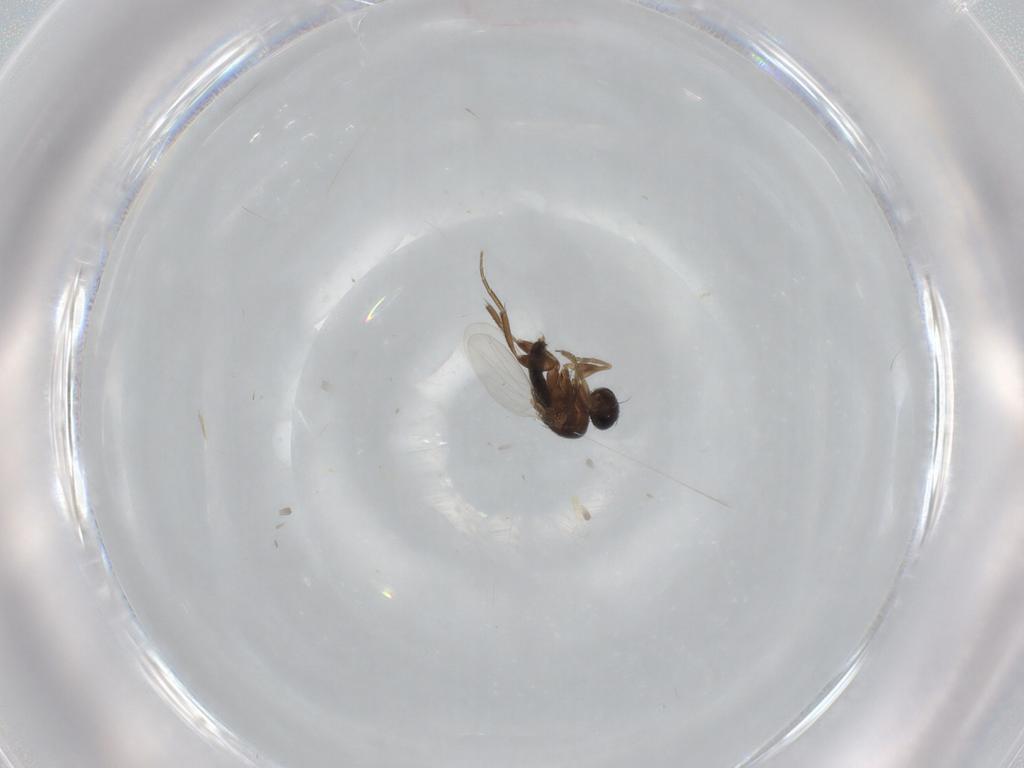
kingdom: Animalia
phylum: Arthropoda
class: Insecta
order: Diptera
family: Phoridae
